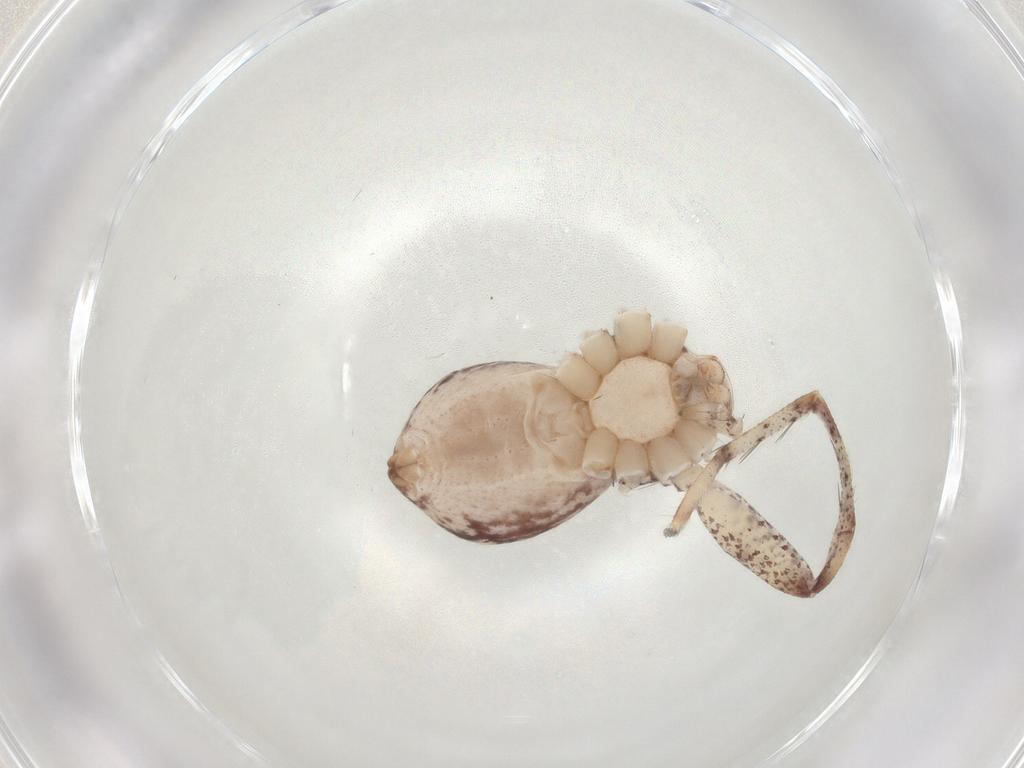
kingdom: Animalia
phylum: Arthropoda
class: Arachnida
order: Araneae
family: Philodromidae
